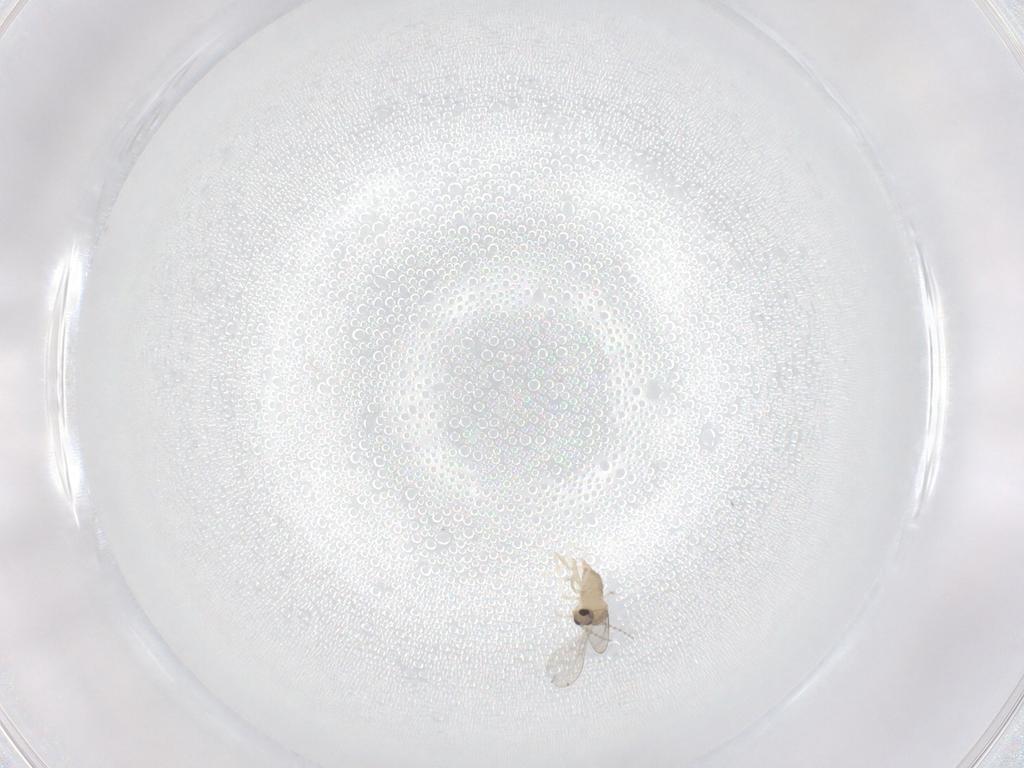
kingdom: Animalia
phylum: Arthropoda
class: Insecta
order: Diptera
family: Cecidomyiidae
